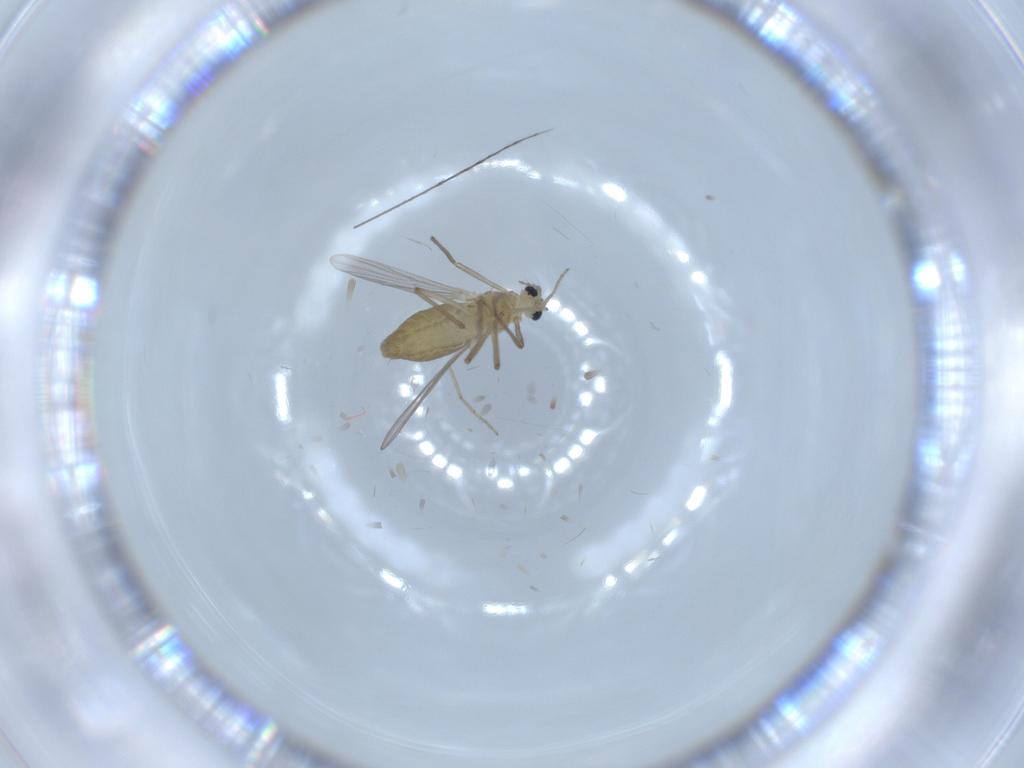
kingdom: Animalia
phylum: Arthropoda
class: Insecta
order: Diptera
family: Chironomidae
